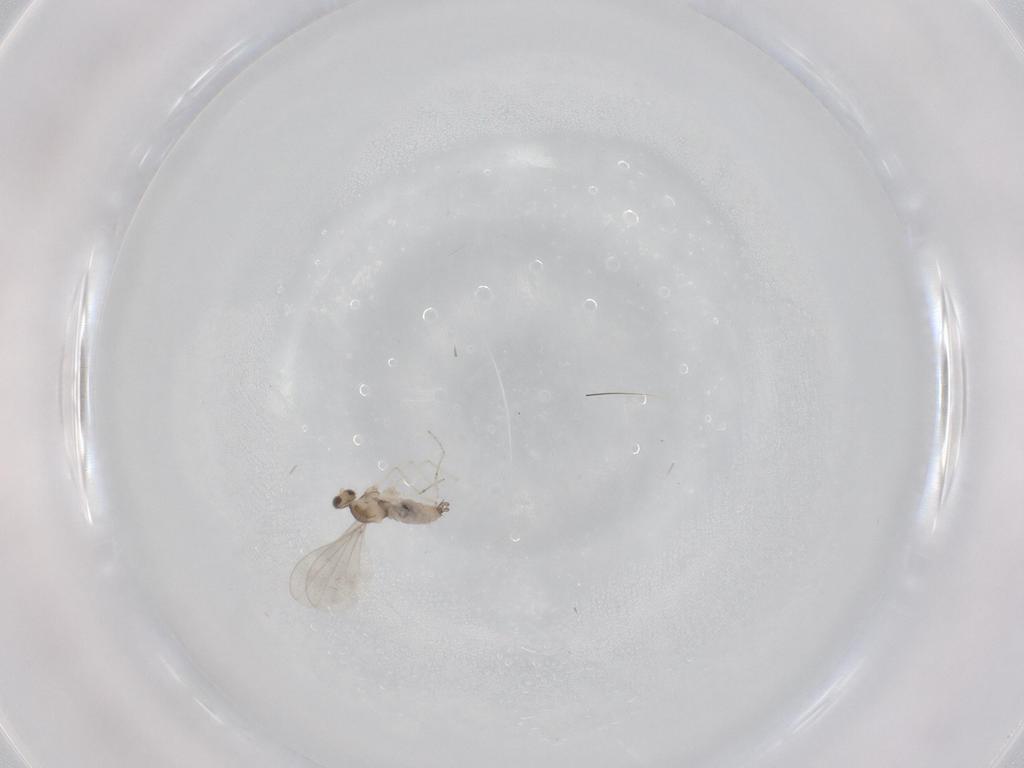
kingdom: Animalia
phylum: Arthropoda
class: Insecta
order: Diptera
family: Cecidomyiidae
